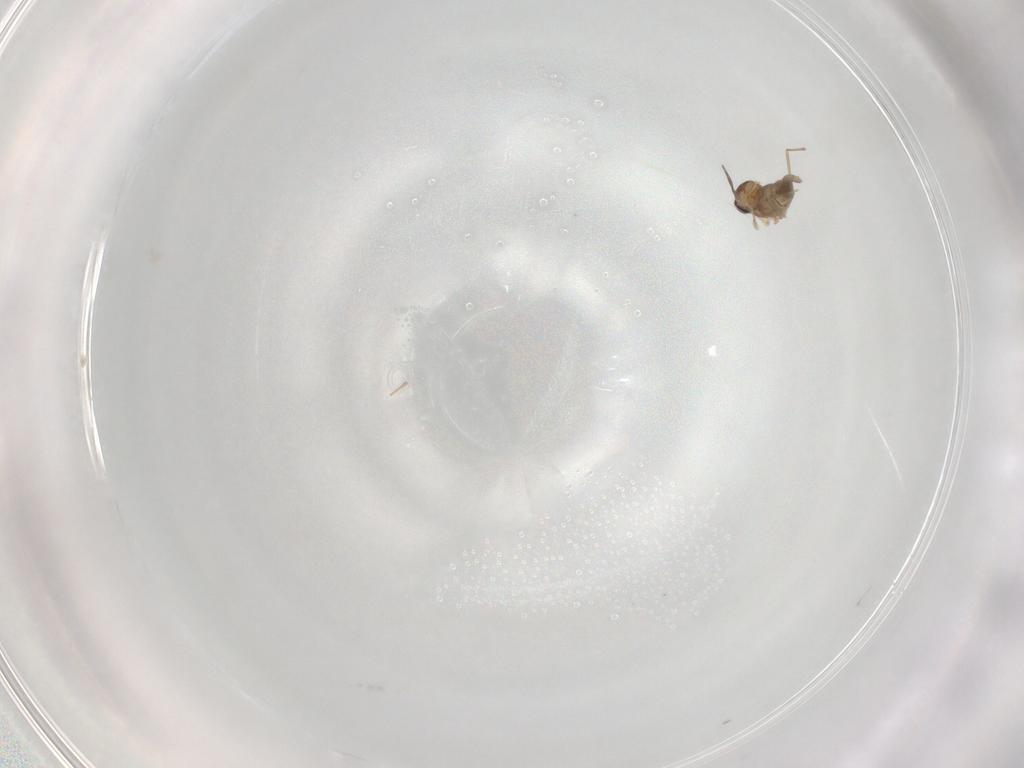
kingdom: Animalia
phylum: Arthropoda
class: Insecta
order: Diptera
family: Cecidomyiidae
